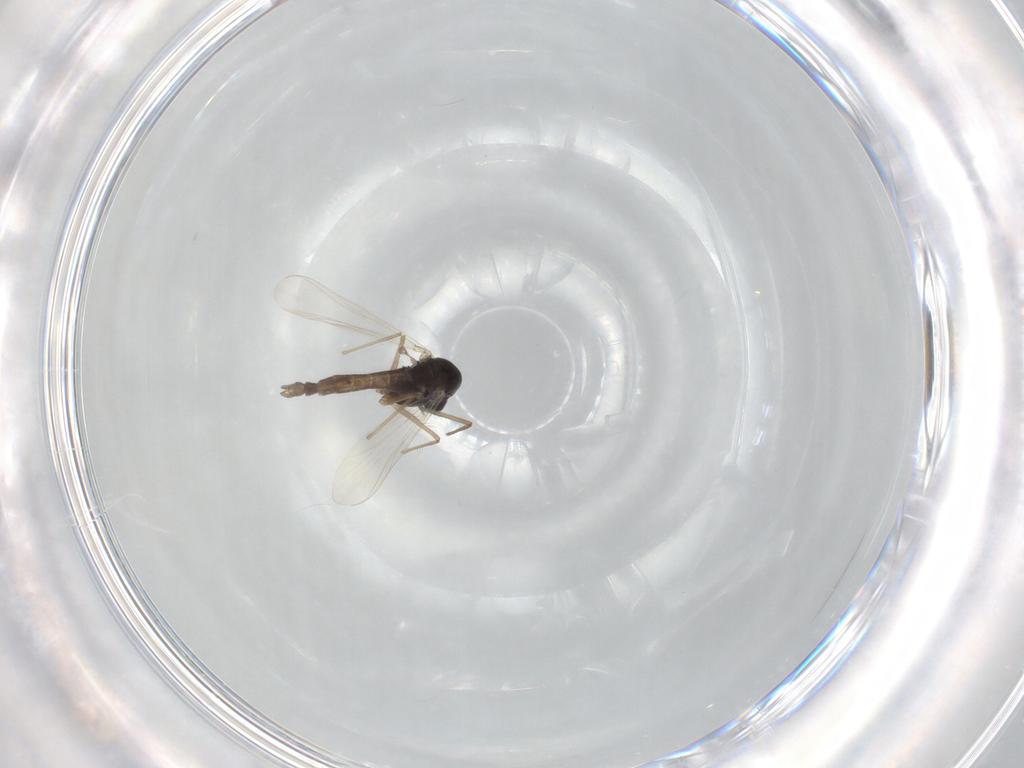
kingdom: Animalia
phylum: Arthropoda
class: Insecta
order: Diptera
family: Chironomidae
